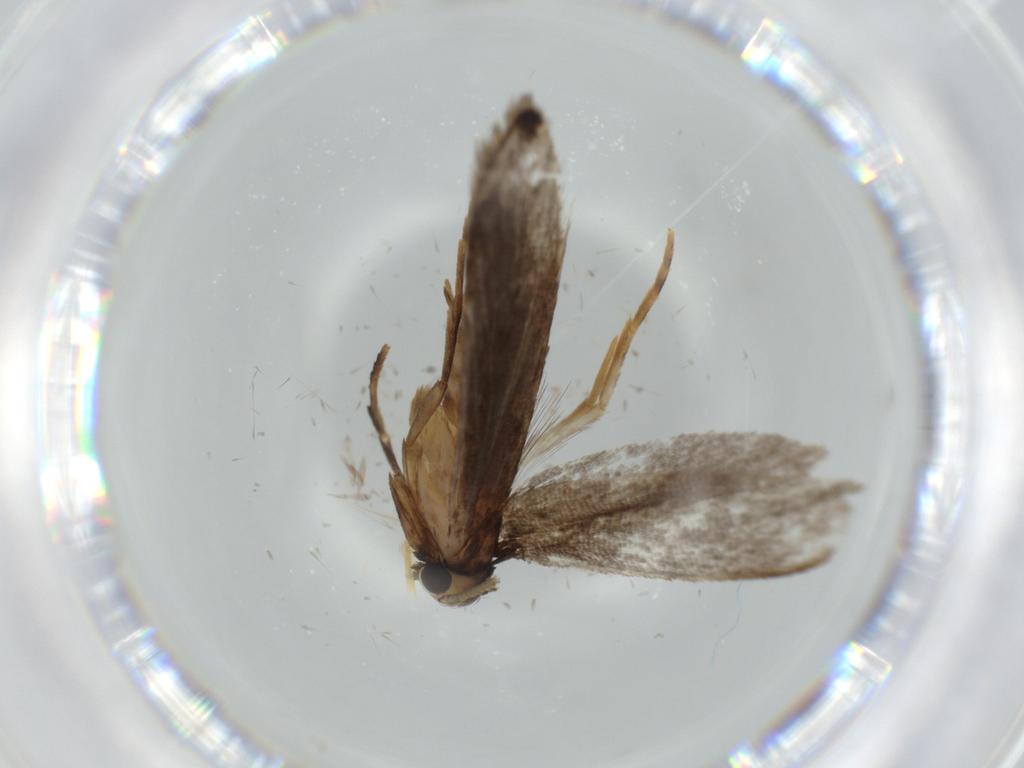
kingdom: Animalia
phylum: Arthropoda
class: Insecta
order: Lepidoptera
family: Tineidae
